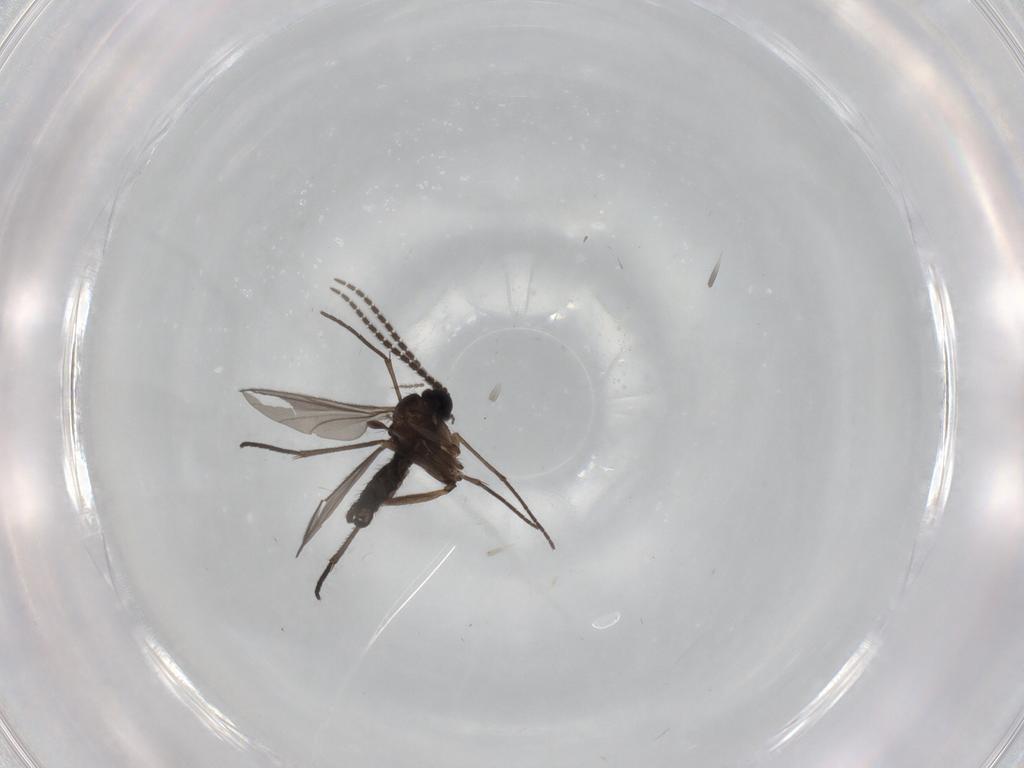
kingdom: Animalia
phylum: Arthropoda
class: Insecta
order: Diptera
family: Sciaridae
